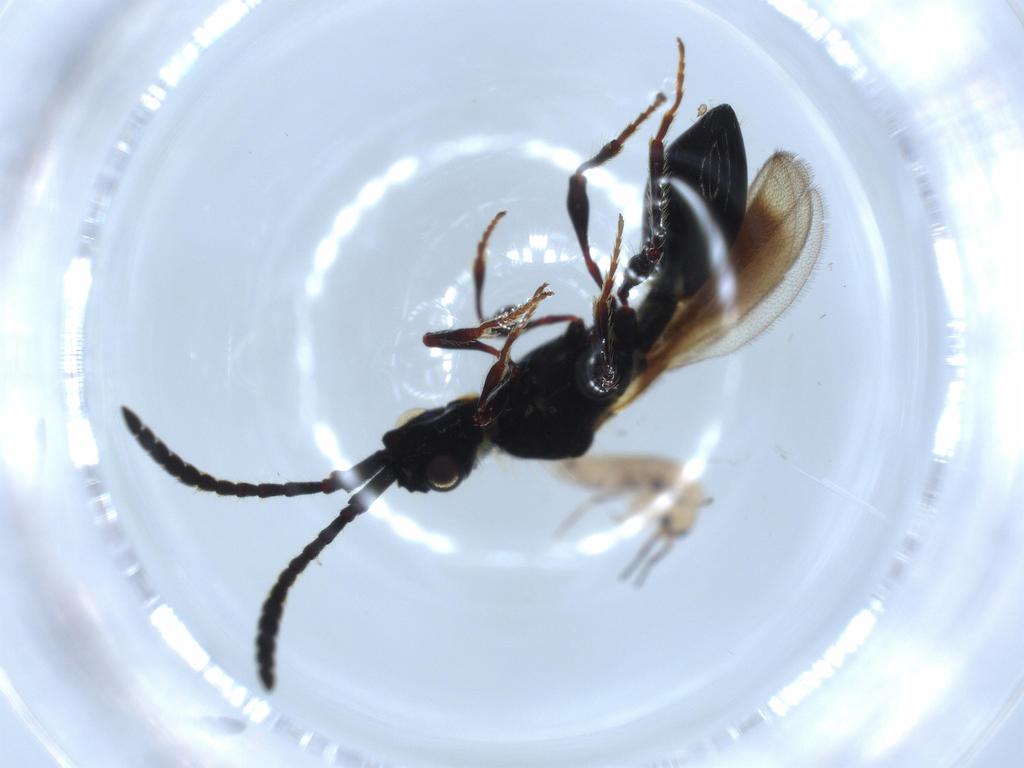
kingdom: Animalia
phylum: Arthropoda
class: Insecta
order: Hymenoptera
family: Diapriidae
